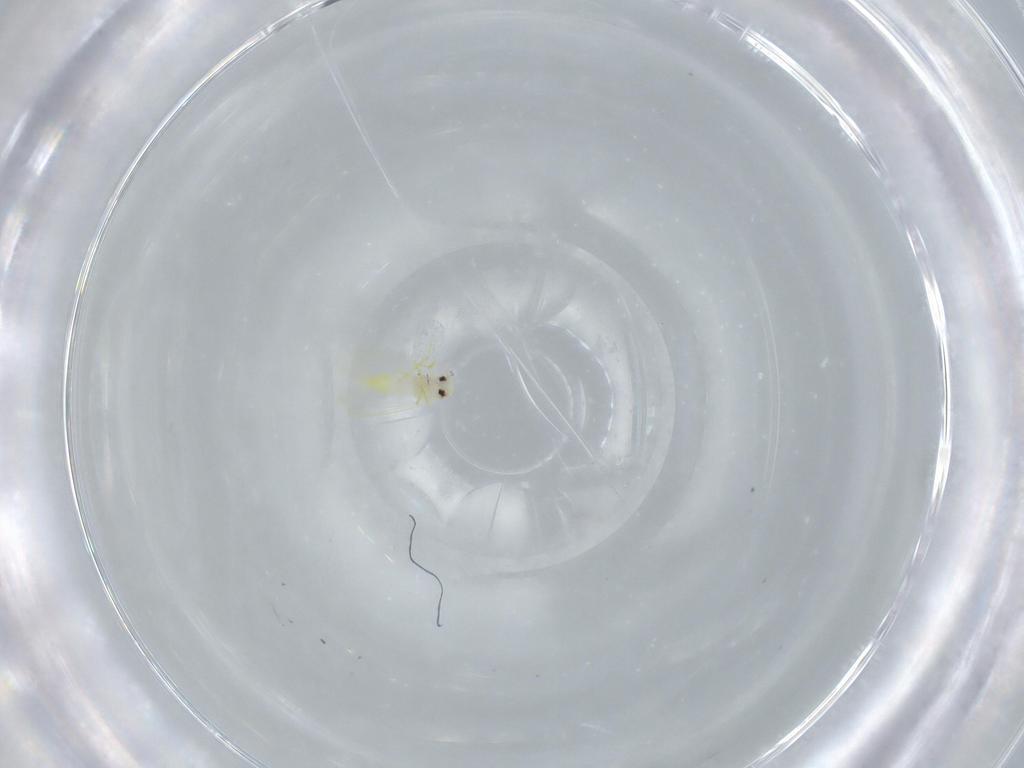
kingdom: Animalia
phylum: Arthropoda
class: Insecta
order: Hemiptera
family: Aleyrodidae
